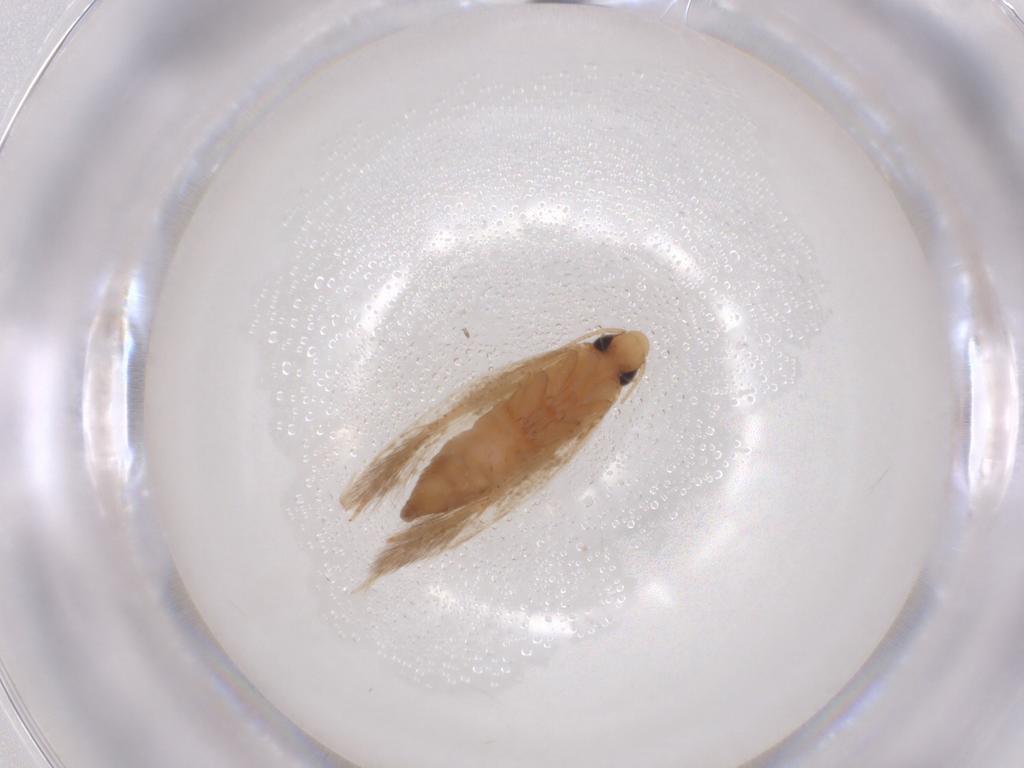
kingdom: Animalia
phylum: Arthropoda
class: Insecta
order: Lepidoptera
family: Tineidae
